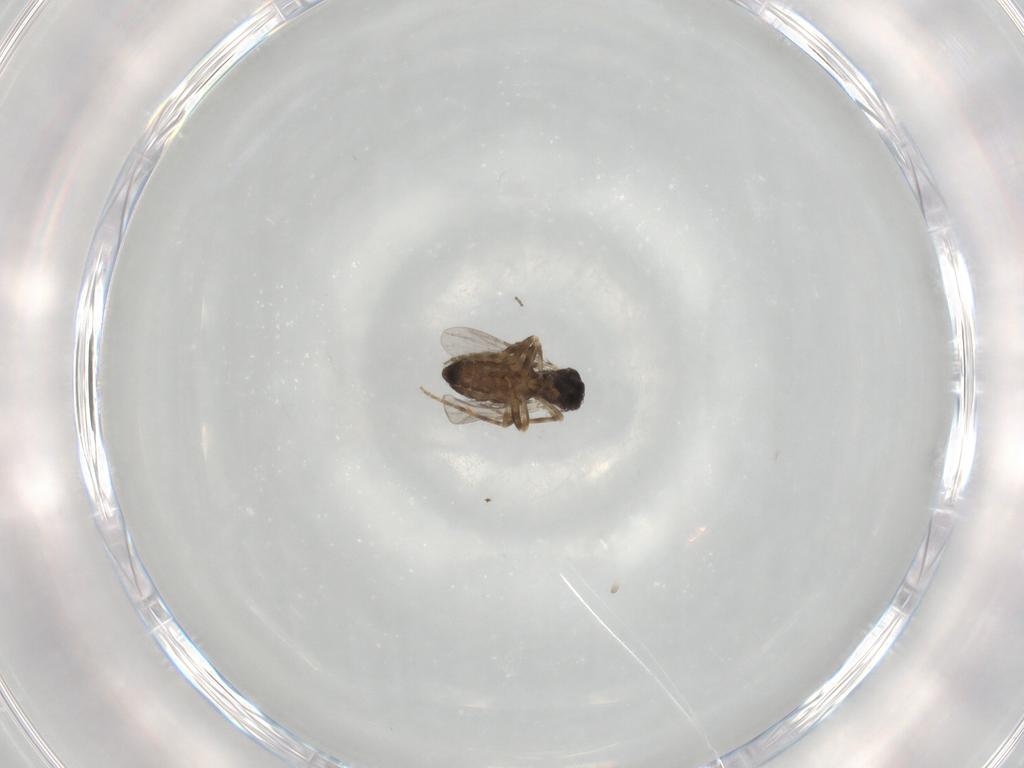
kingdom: Animalia
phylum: Arthropoda
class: Insecta
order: Diptera
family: Ceratopogonidae
